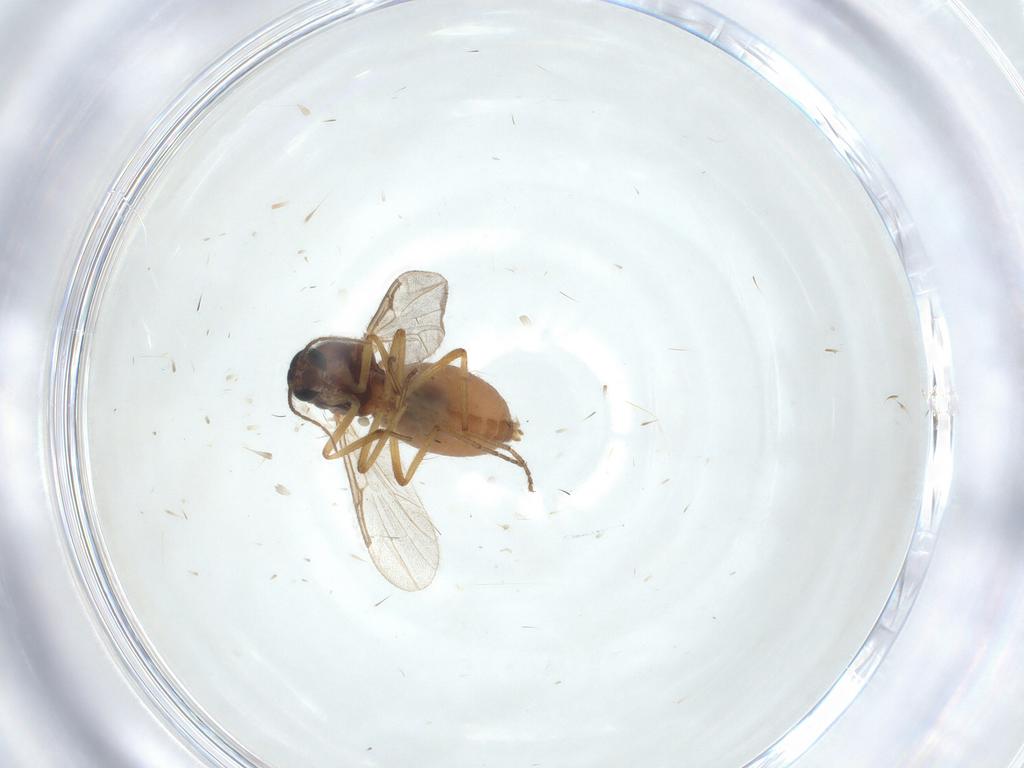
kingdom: Animalia
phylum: Arthropoda
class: Insecta
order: Diptera
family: Ceratopogonidae
